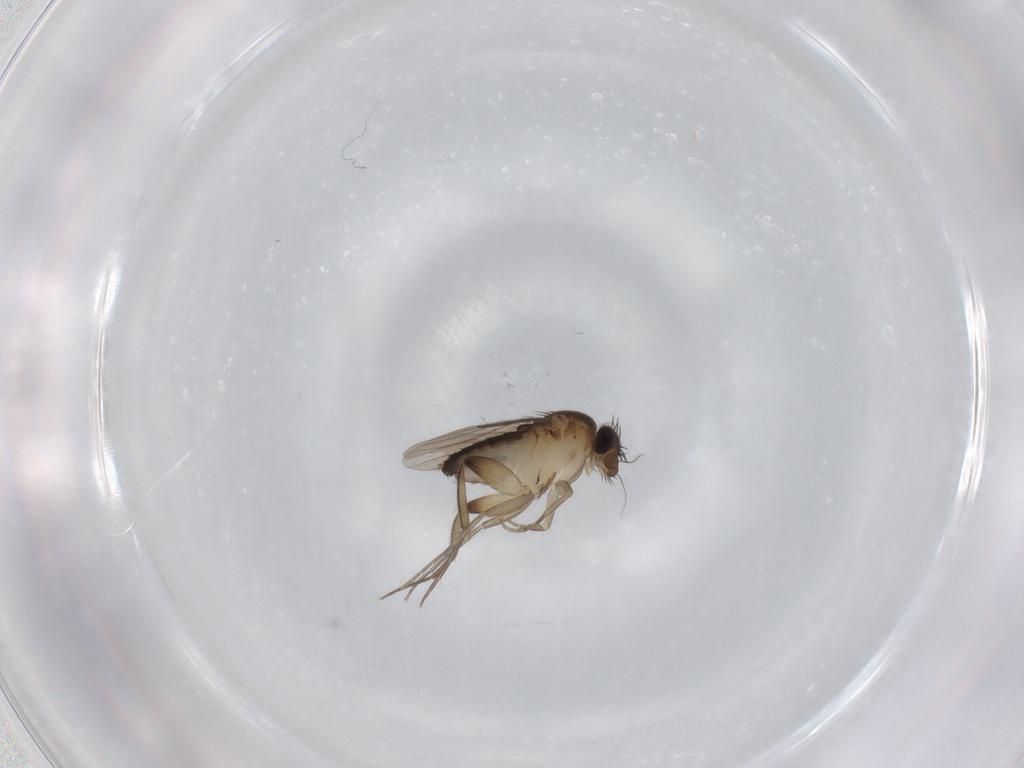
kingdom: Animalia
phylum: Arthropoda
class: Insecta
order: Diptera
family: Phoridae
